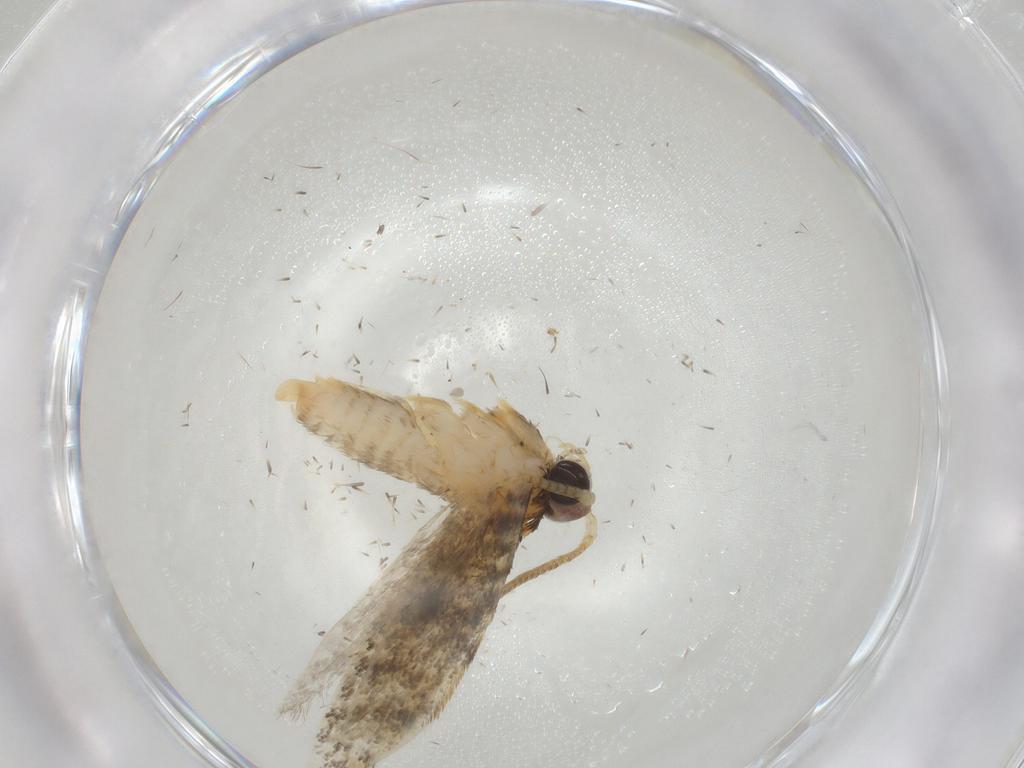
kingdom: Animalia
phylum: Arthropoda
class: Insecta
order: Lepidoptera
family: Tineidae
